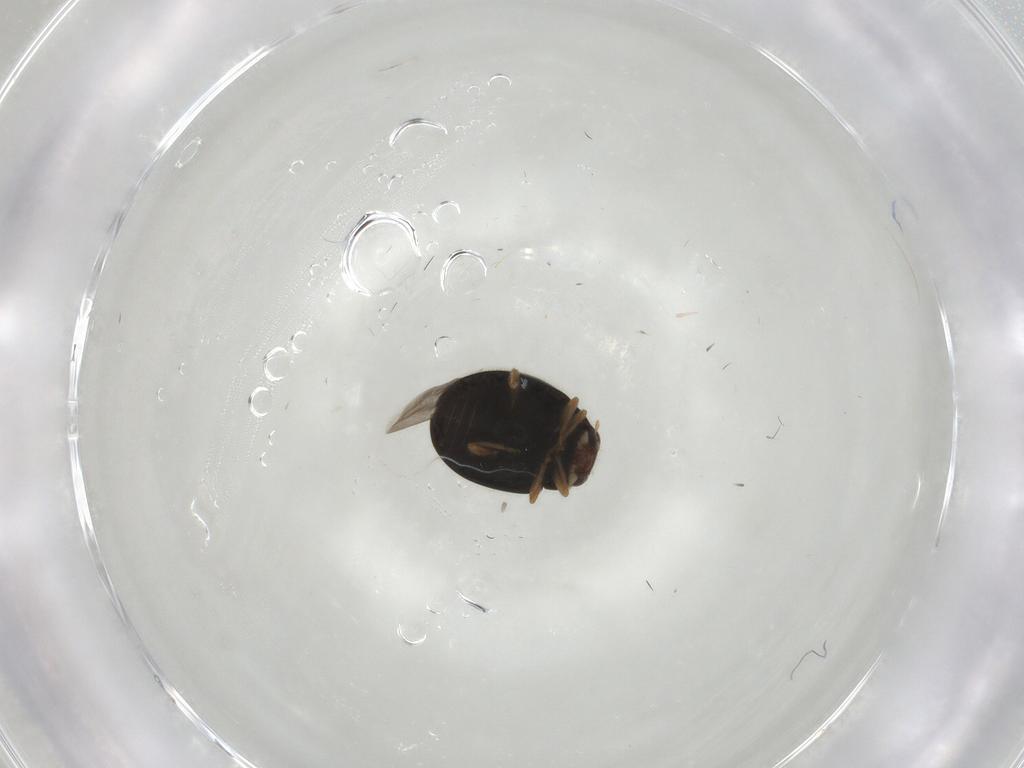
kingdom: Animalia
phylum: Arthropoda
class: Insecta
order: Coleoptera
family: Coccinellidae
